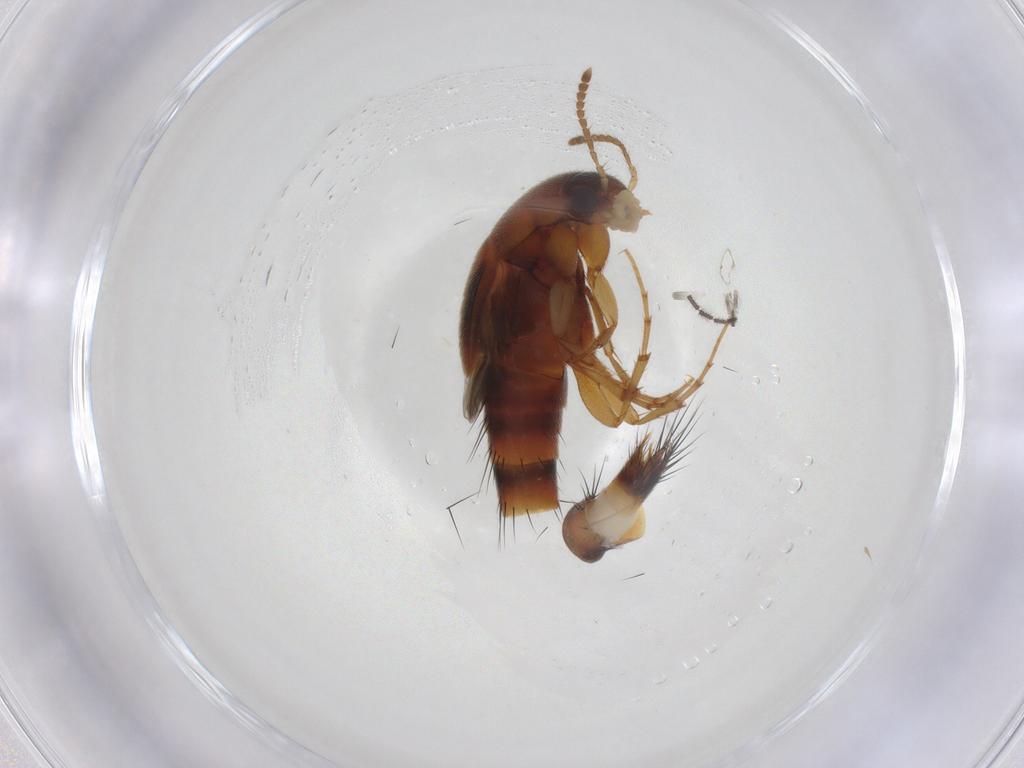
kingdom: Animalia
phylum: Arthropoda
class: Insecta
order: Coleoptera
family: Staphylinidae
